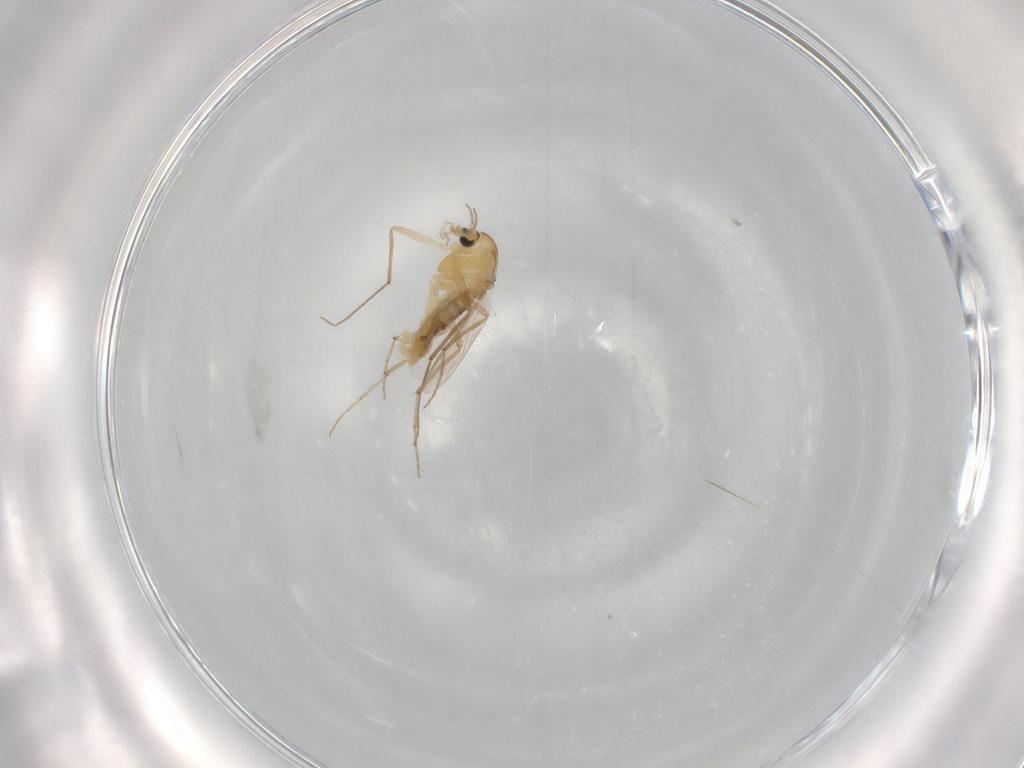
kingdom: Animalia
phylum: Arthropoda
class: Insecta
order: Diptera
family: Chironomidae
